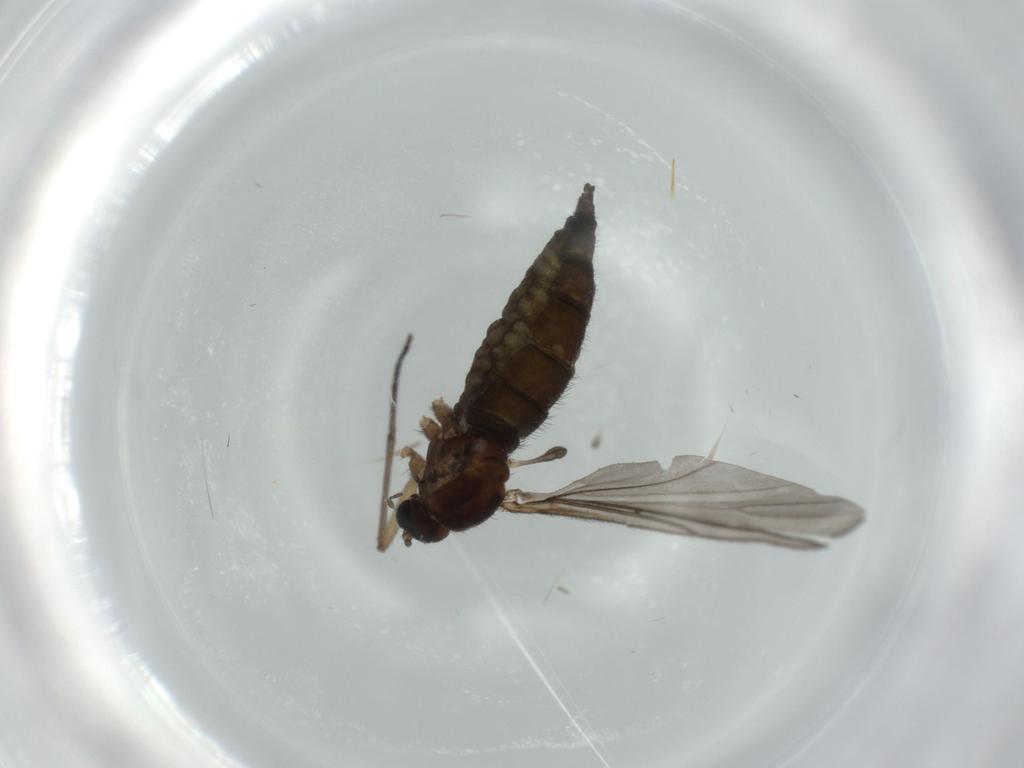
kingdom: Animalia
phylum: Arthropoda
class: Insecta
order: Diptera
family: Sciaridae
